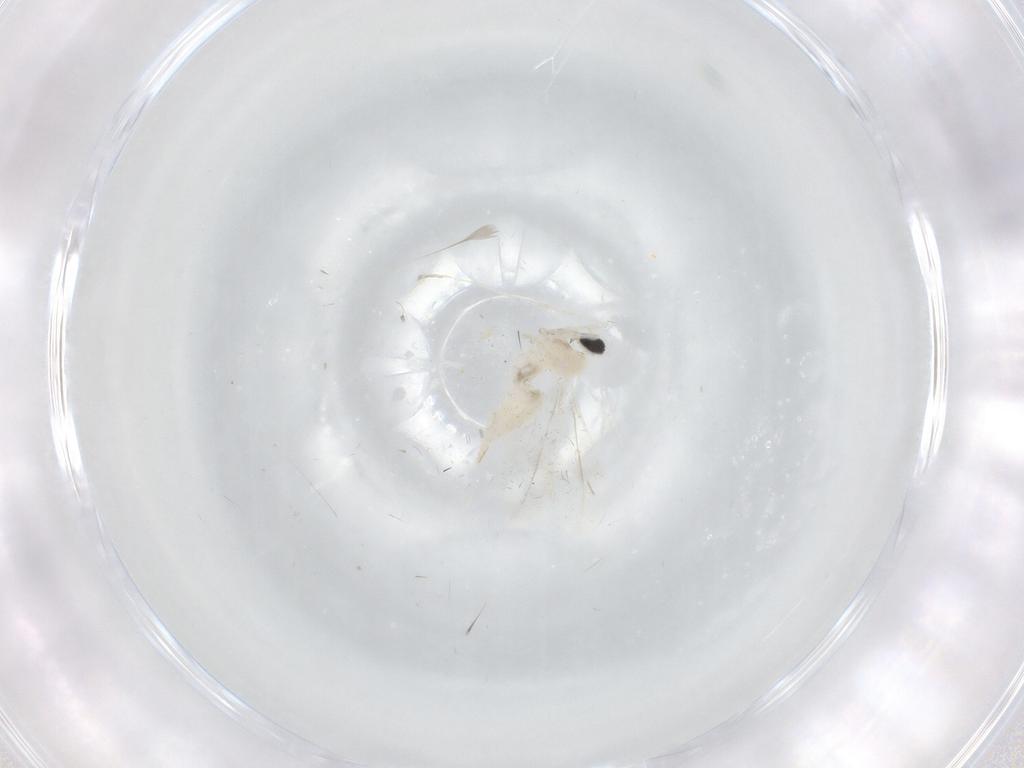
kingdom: Animalia
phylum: Arthropoda
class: Insecta
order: Diptera
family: Cecidomyiidae
